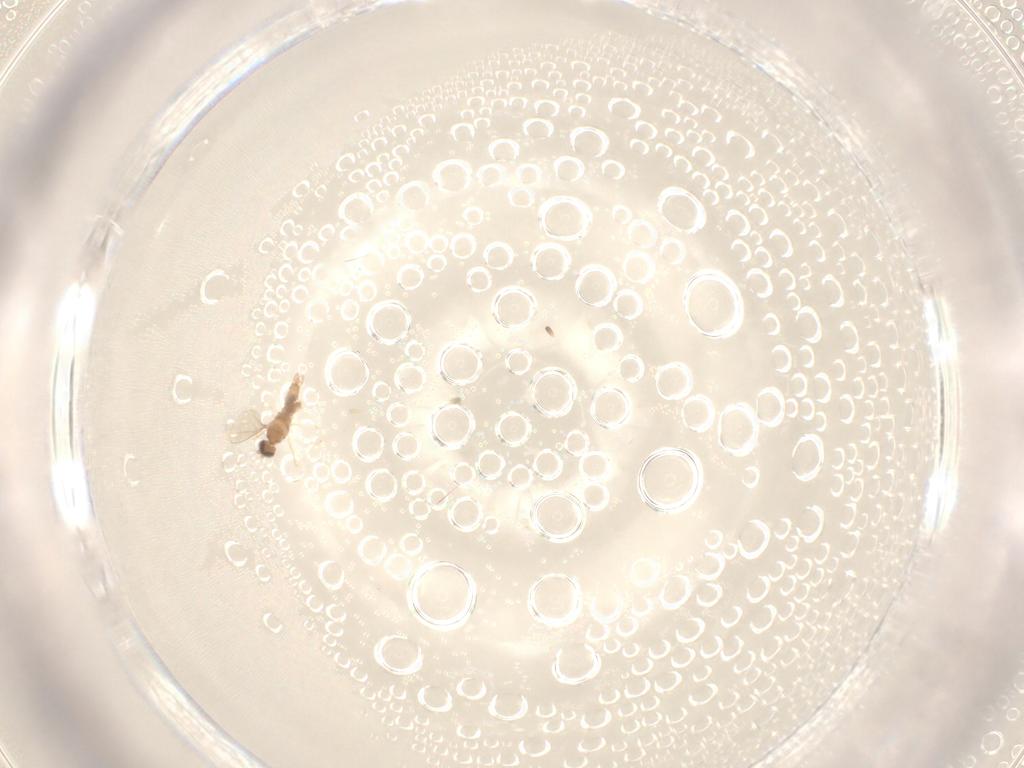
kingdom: Animalia
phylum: Arthropoda
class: Insecta
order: Diptera
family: Cecidomyiidae
